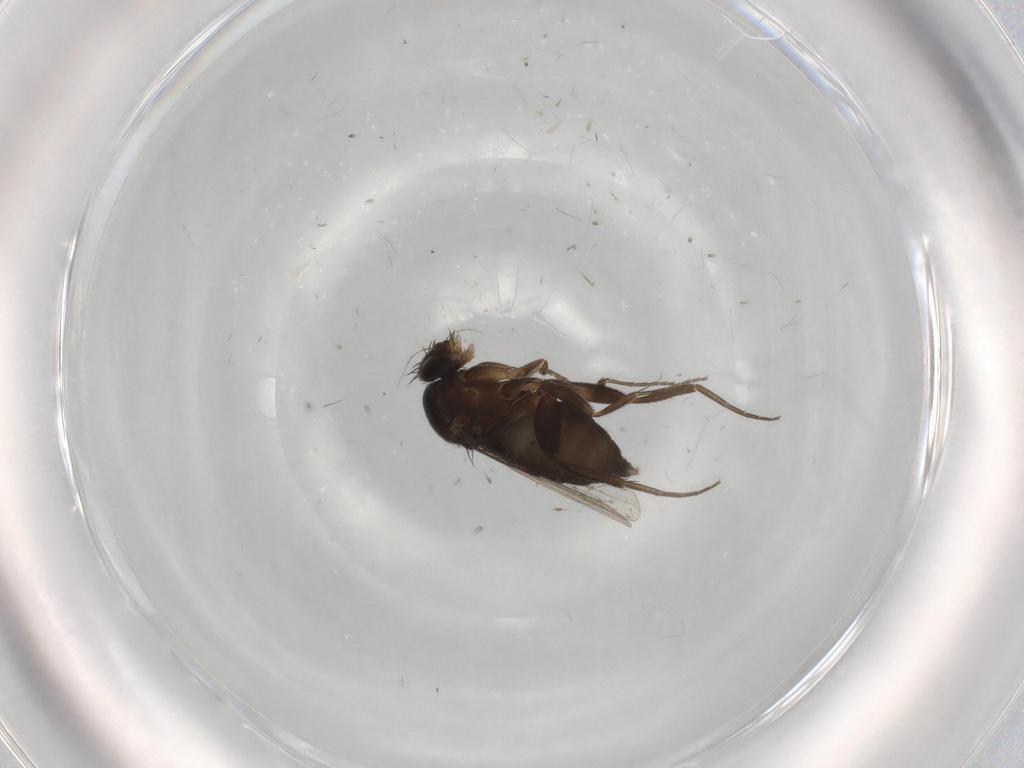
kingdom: Animalia
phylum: Arthropoda
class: Insecta
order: Diptera
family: Phoridae
